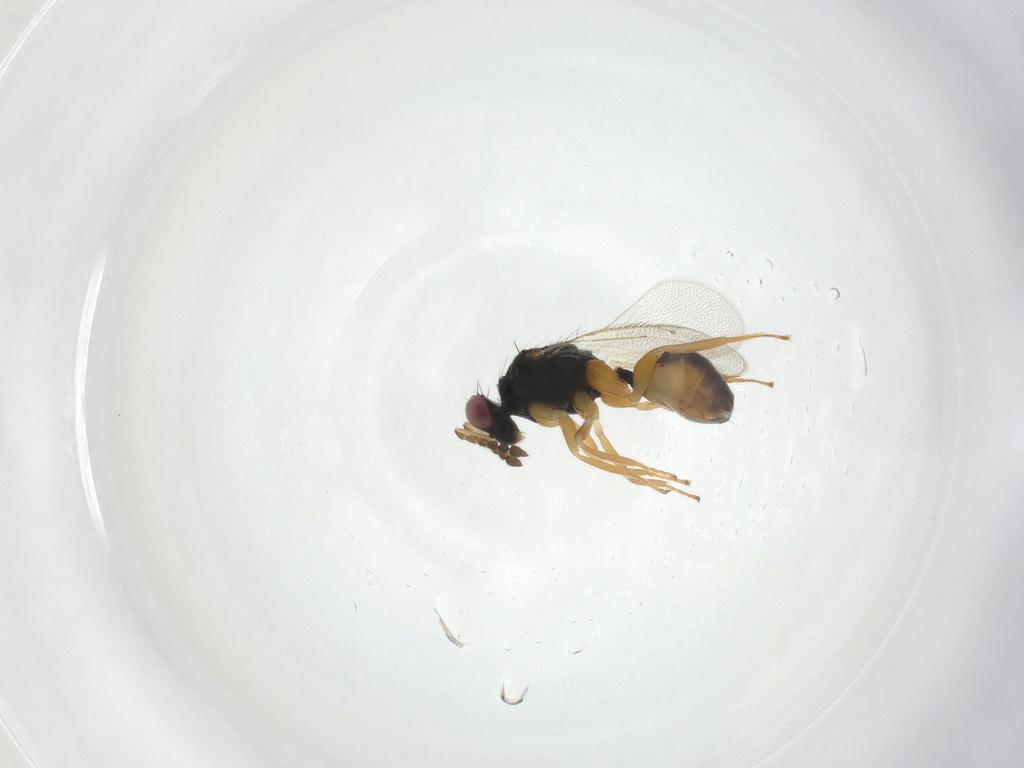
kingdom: Animalia
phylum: Arthropoda
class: Insecta
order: Hymenoptera
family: Eulophidae
